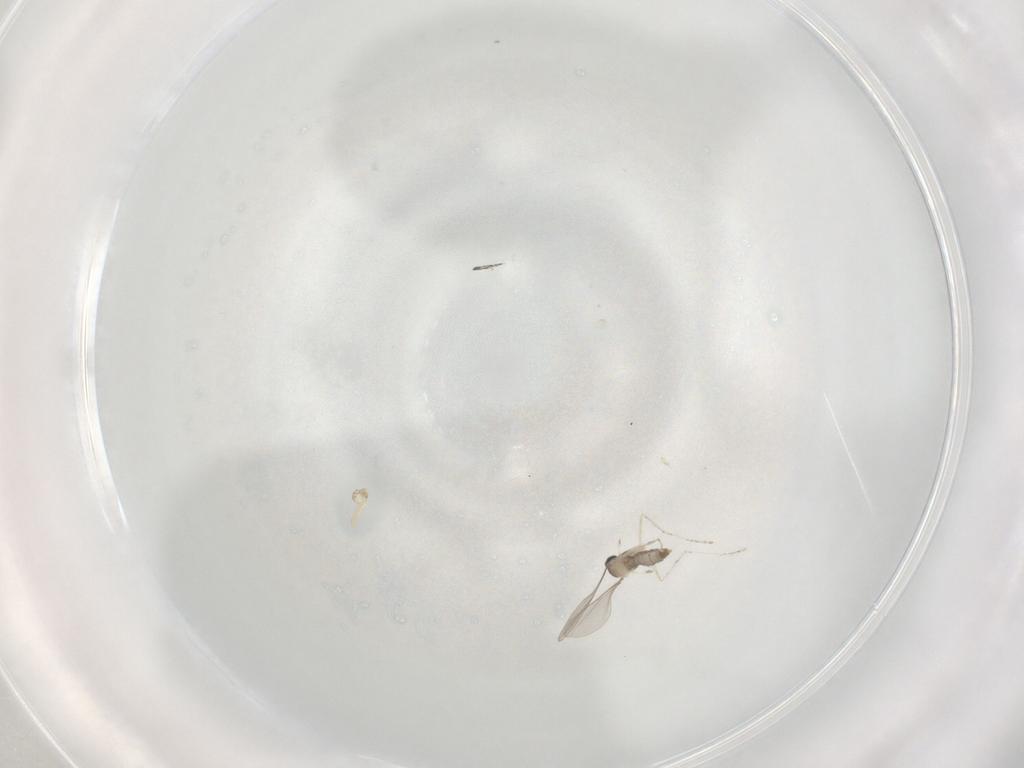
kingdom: Animalia
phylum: Arthropoda
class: Insecta
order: Diptera
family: Cecidomyiidae
